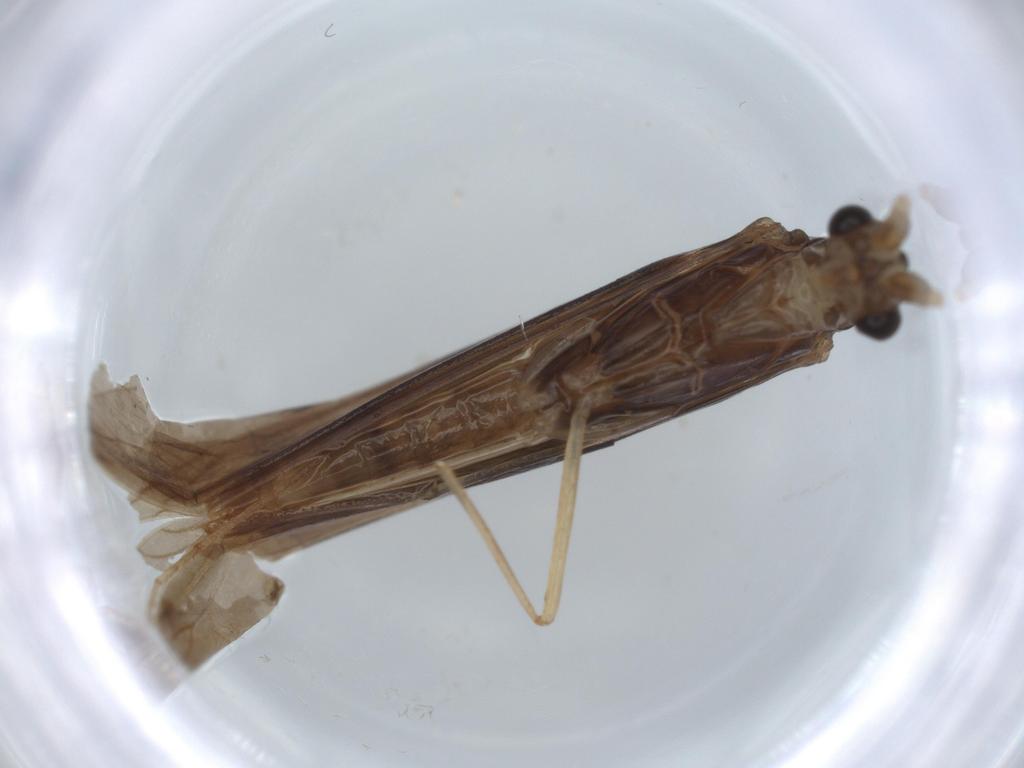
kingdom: Animalia
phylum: Arthropoda
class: Insecta
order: Trichoptera
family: Leptoceridae
